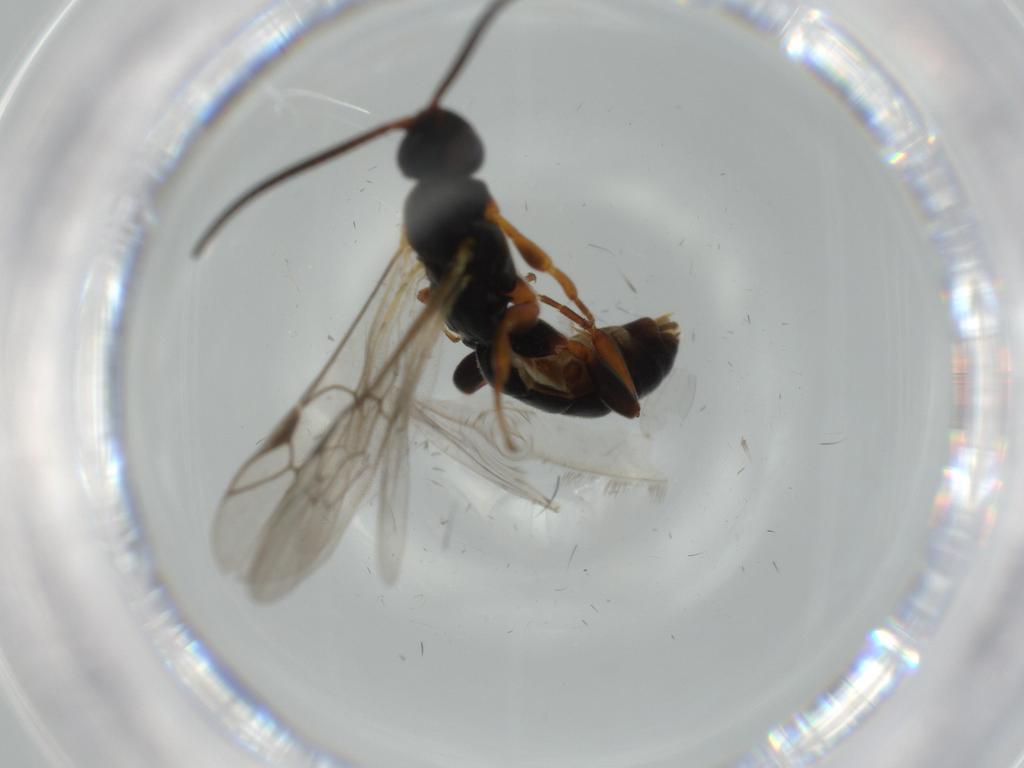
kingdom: Animalia
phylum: Arthropoda
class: Insecta
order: Hymenoptera
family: Ichneumonidae
